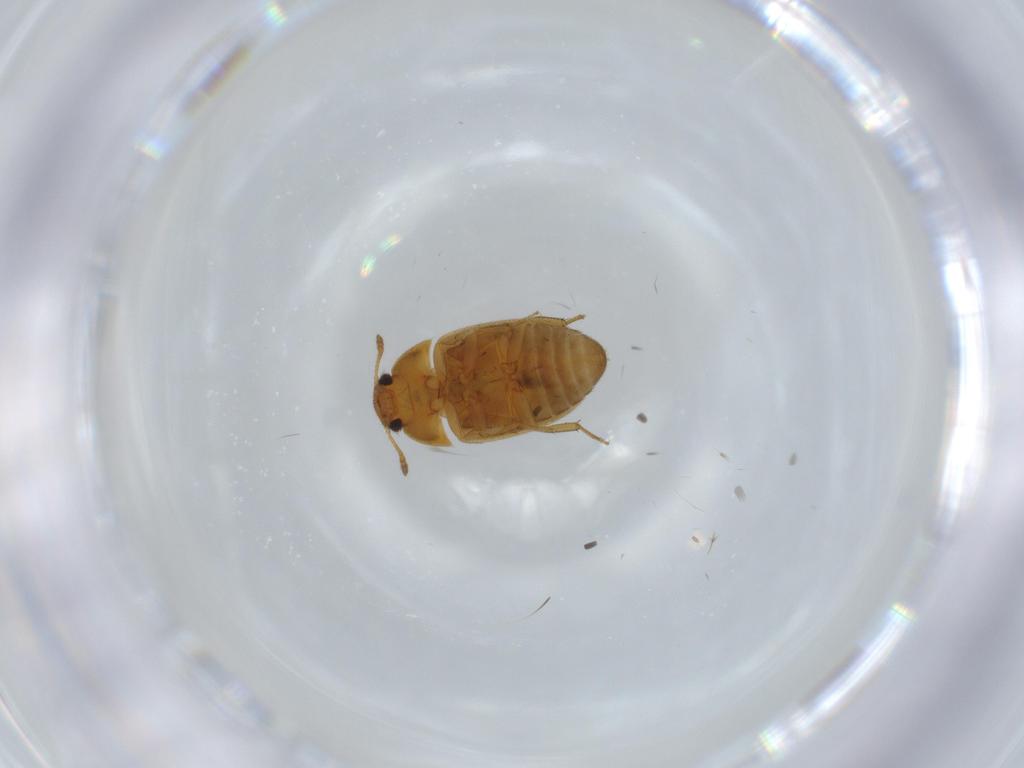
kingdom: Animalia
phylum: Arthropoda
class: Insecta
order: Coleoptera
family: Mycetophagidae
